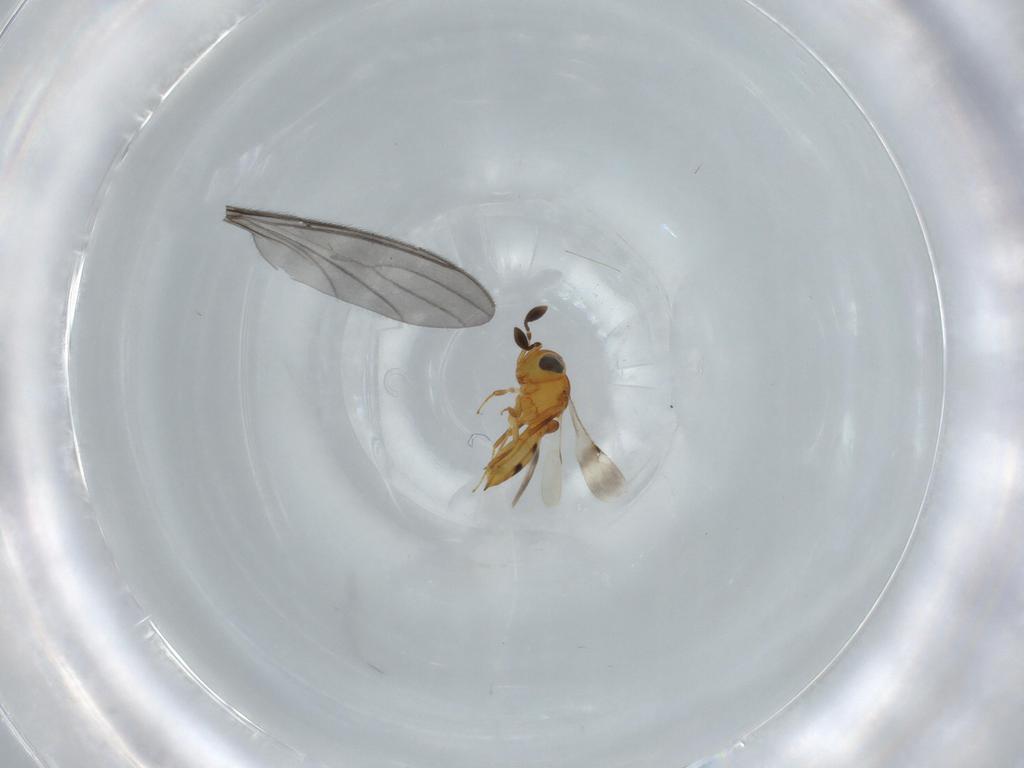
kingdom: Animalia
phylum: Arthropoda
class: Insecta
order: Hymenoptera
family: Scelionidae
